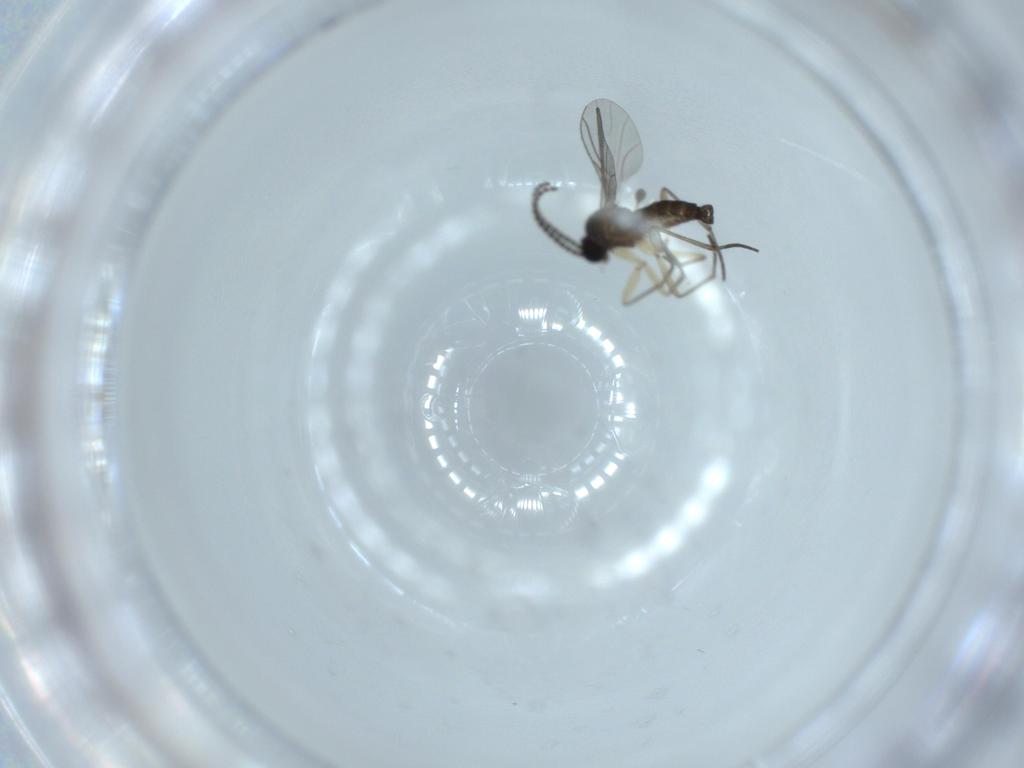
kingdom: Animalia
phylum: Arthropoda
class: Insecta
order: Diptera
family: Sciaridae
